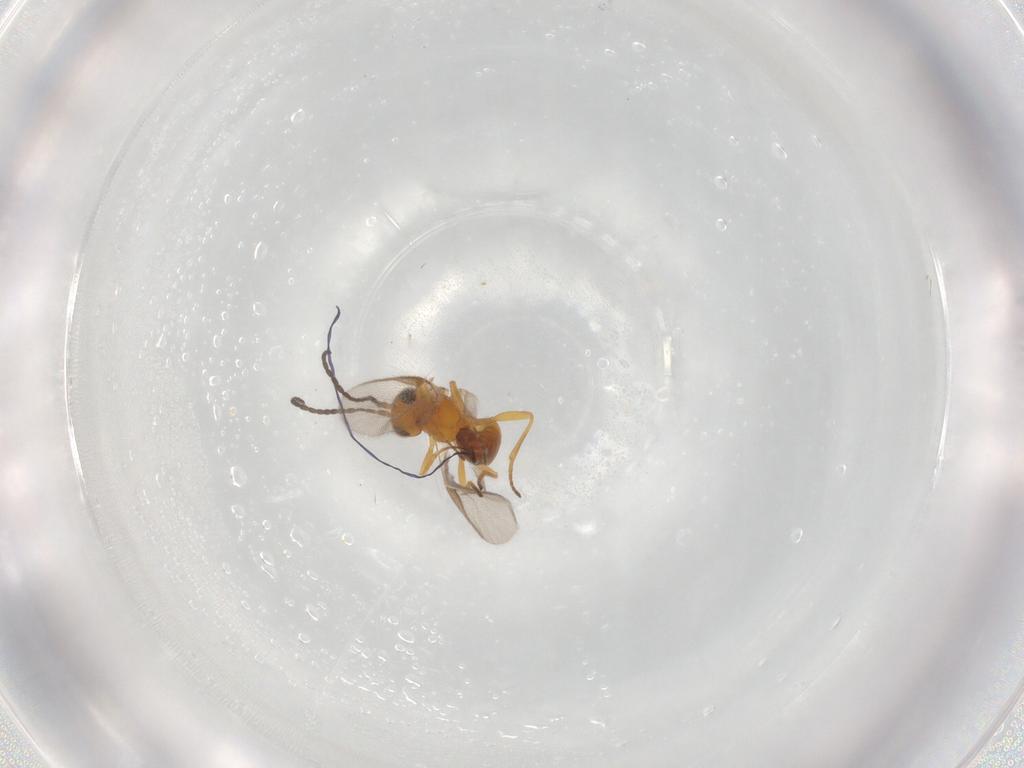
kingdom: Animalia
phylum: Arthropoda
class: Insecta
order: Hymenoptera
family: Braconidae
